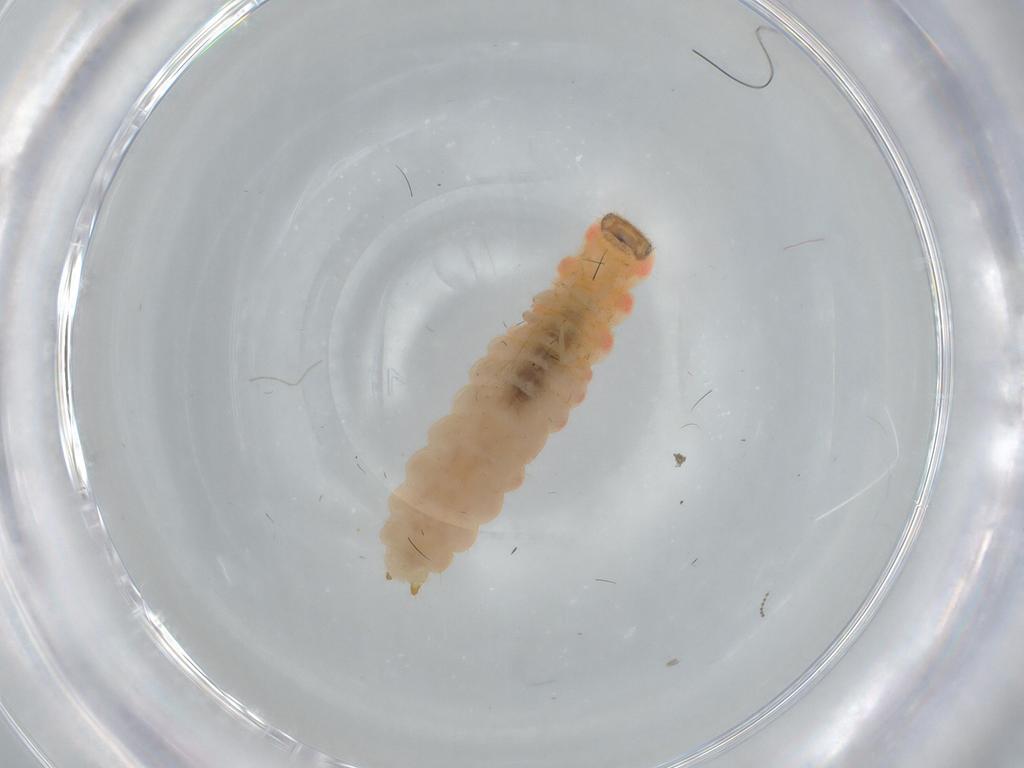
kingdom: Animalia
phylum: Arthropoda
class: Insecta
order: Coleoptera
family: Melyridae
